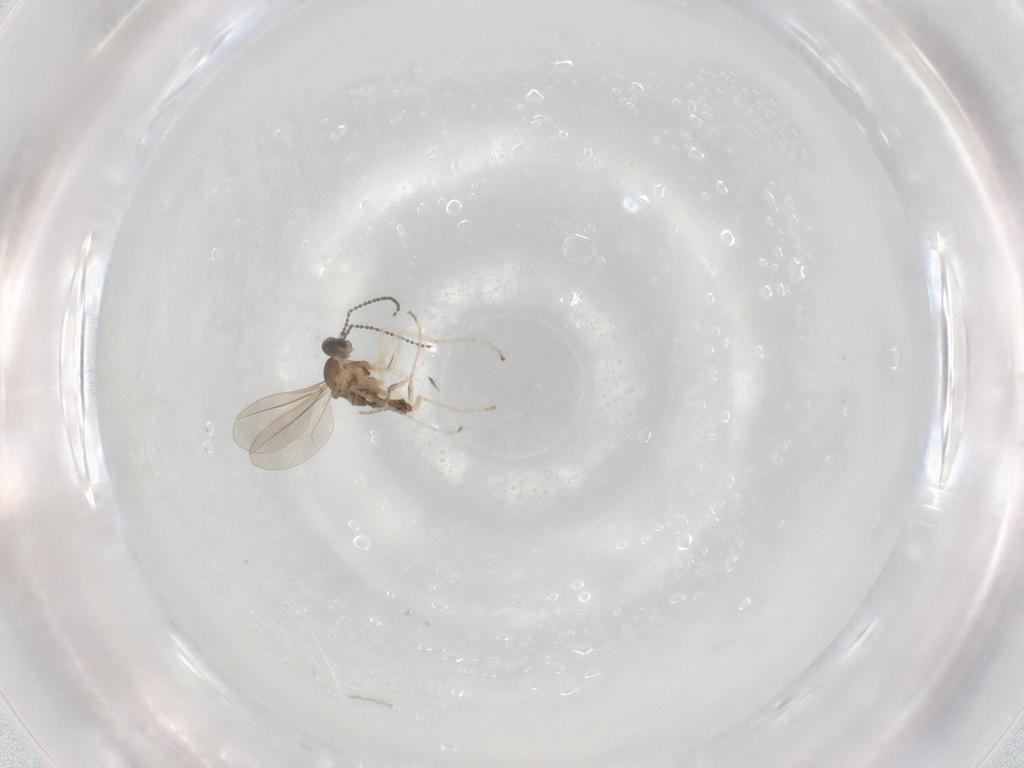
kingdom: Animalia
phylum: Arthropoda
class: Insecta
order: Diptera
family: Cecidomyiidae
